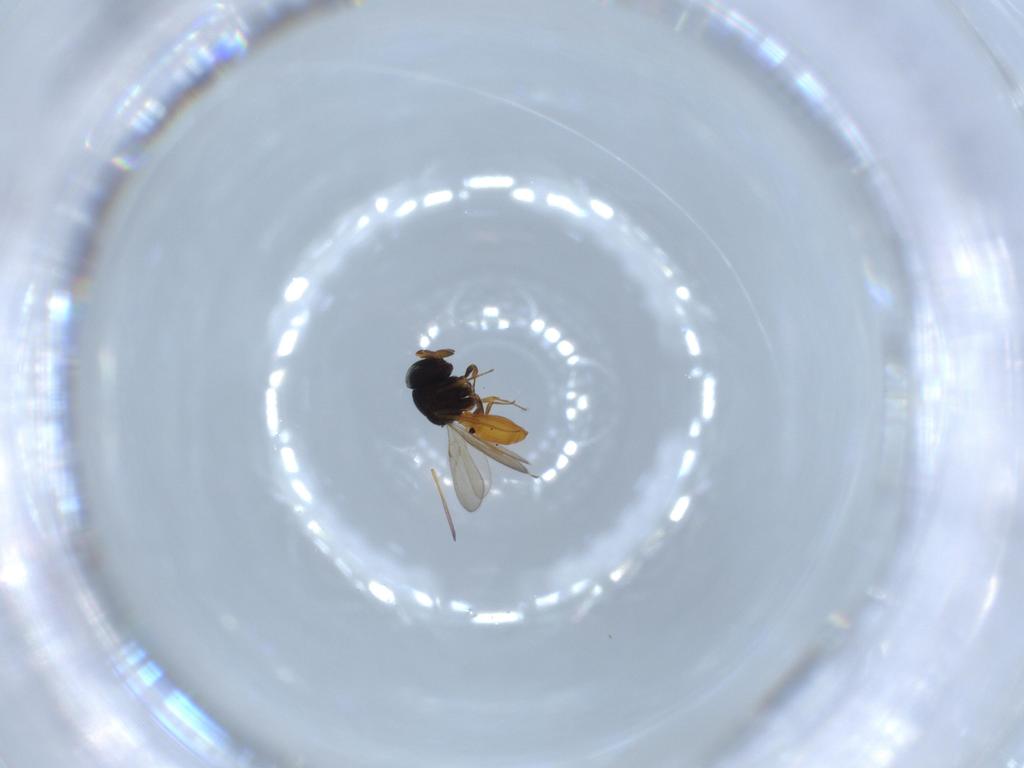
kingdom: Animalia
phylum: Arthropoda
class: Insecta
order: Hymenoptera
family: Scelionidae
